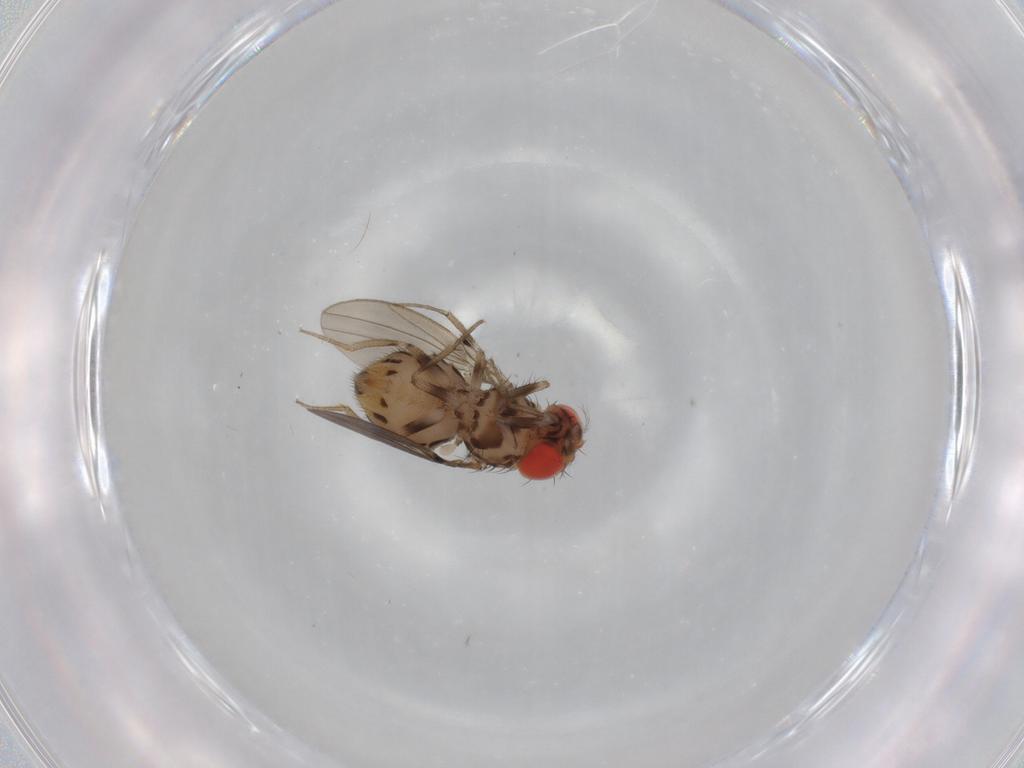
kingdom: Animalia
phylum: Arthropoda
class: Insecta
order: Diptera
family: Drosophilidae
